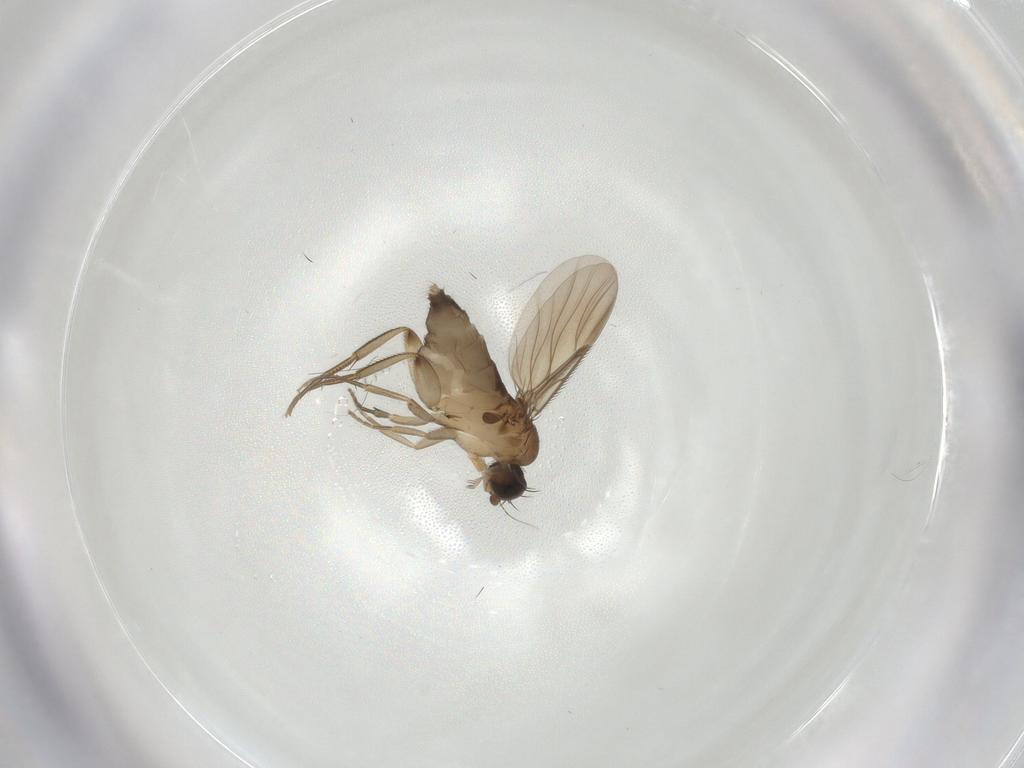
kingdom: Animalia
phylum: Arthropoda
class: Insecta
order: Diptera
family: Phoridae
